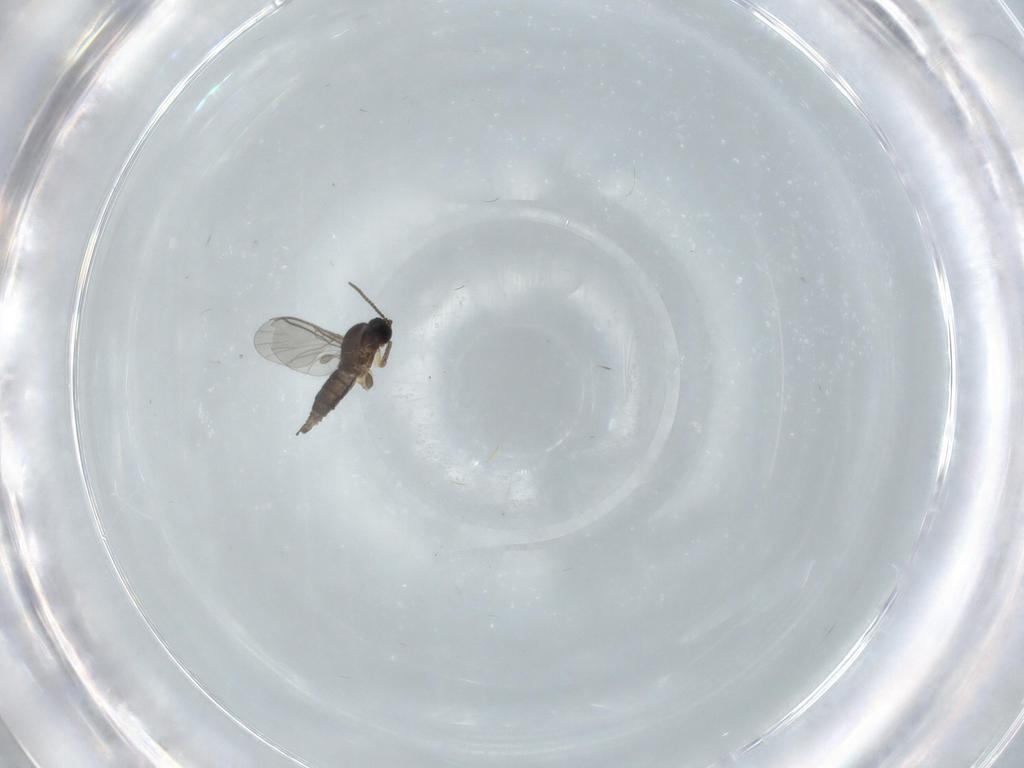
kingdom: Animalia
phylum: Arthropoda
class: Insecta
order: Diptera
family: Sciaridae
